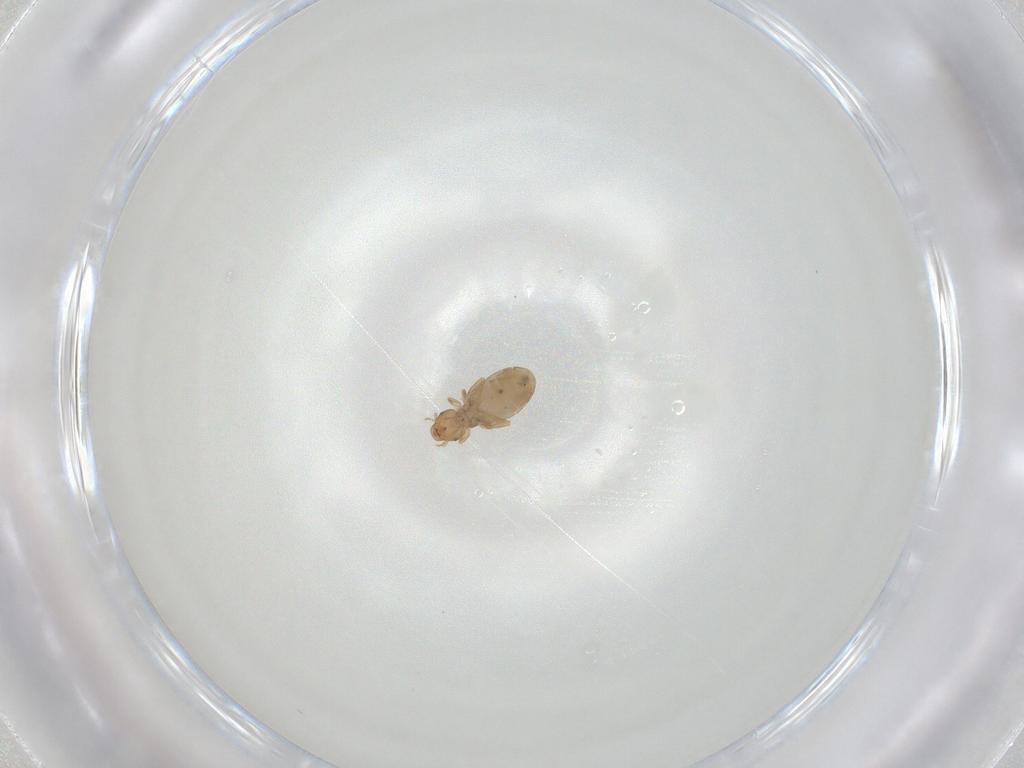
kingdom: Animalia
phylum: Arthropoda
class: Insecta
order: Psocodea
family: Liposcelididae
